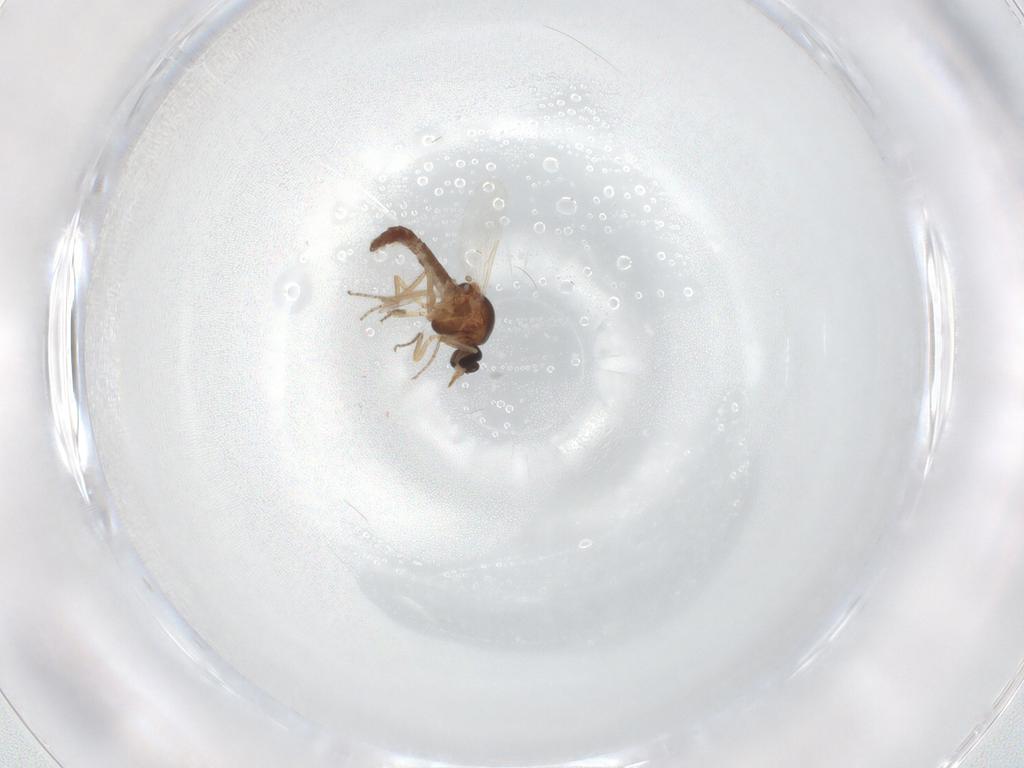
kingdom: Animalia
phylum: Arthropoda
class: Insecta
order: Diptera
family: Ceratopogonidae
